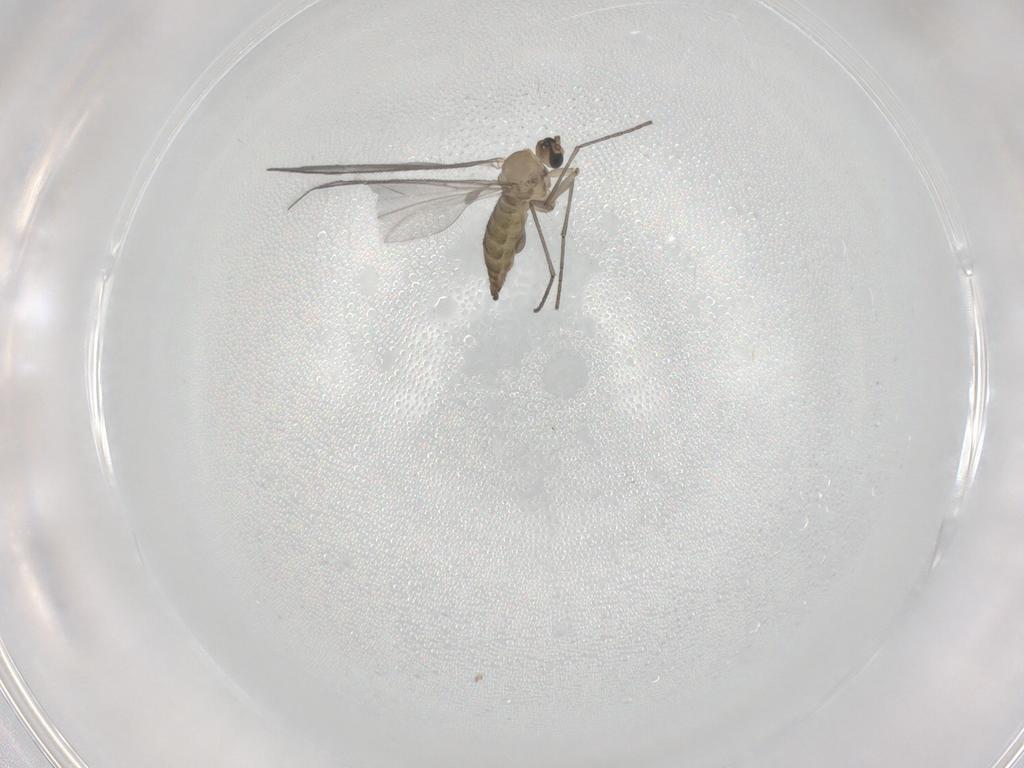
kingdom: Animalia
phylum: Arthropoda
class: Insecta
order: Diptera
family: Sciaridae
